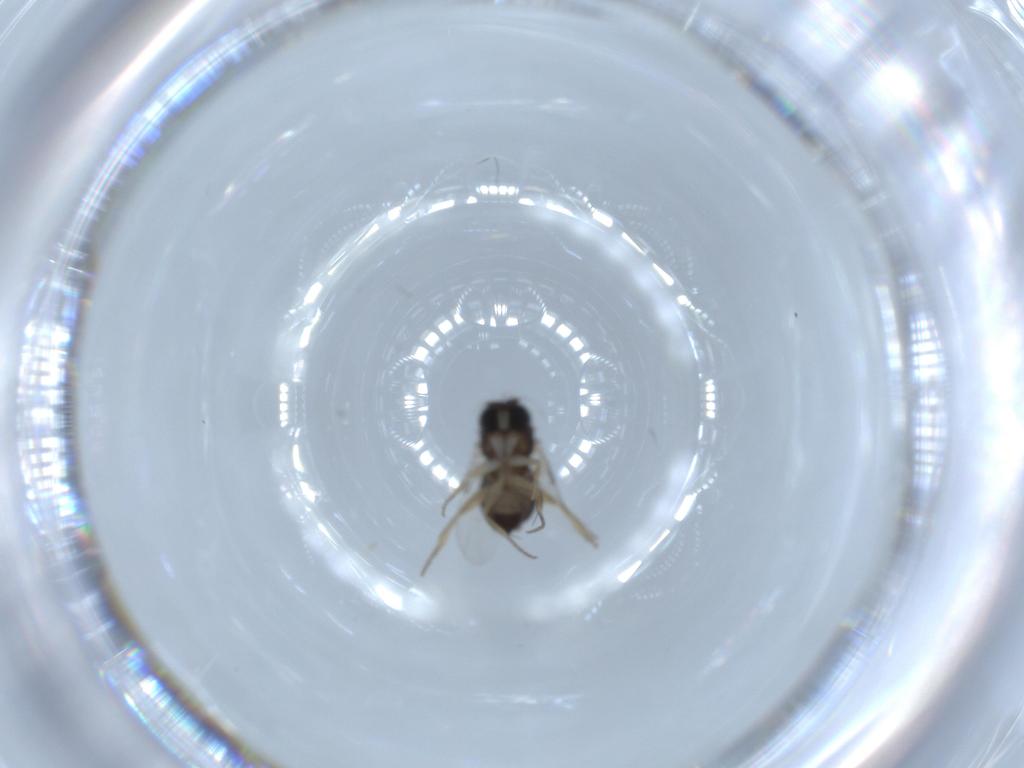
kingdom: Animalia
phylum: Arthropoda
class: Insecta
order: Diptera
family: Phoridae
